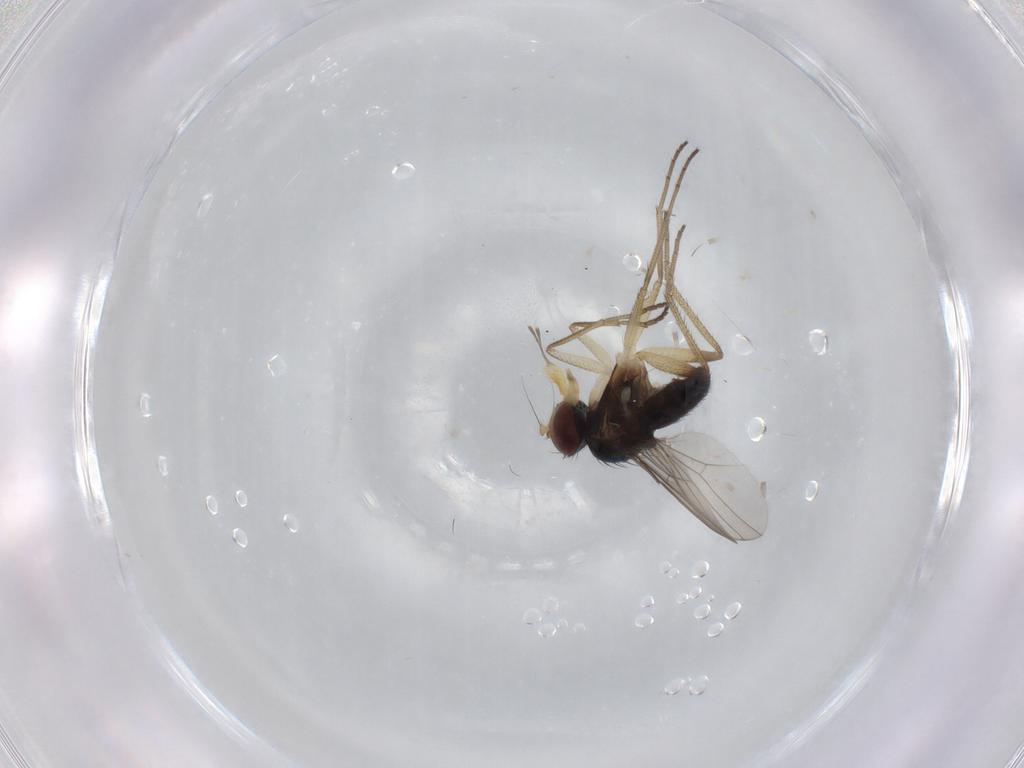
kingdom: Animalia
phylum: Arthropoda
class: Insecta
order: Diptera
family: Dolichopodidae
